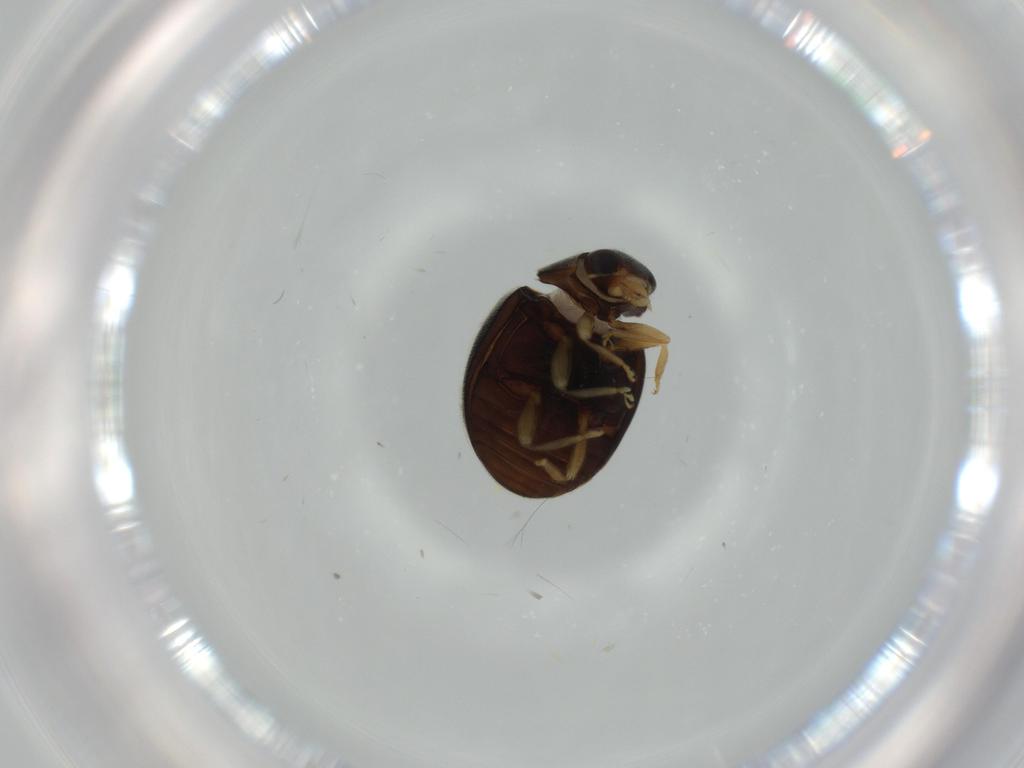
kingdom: Animalia
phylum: Arthropoda
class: Insecta
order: Coleoptera
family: Coccinellidae
